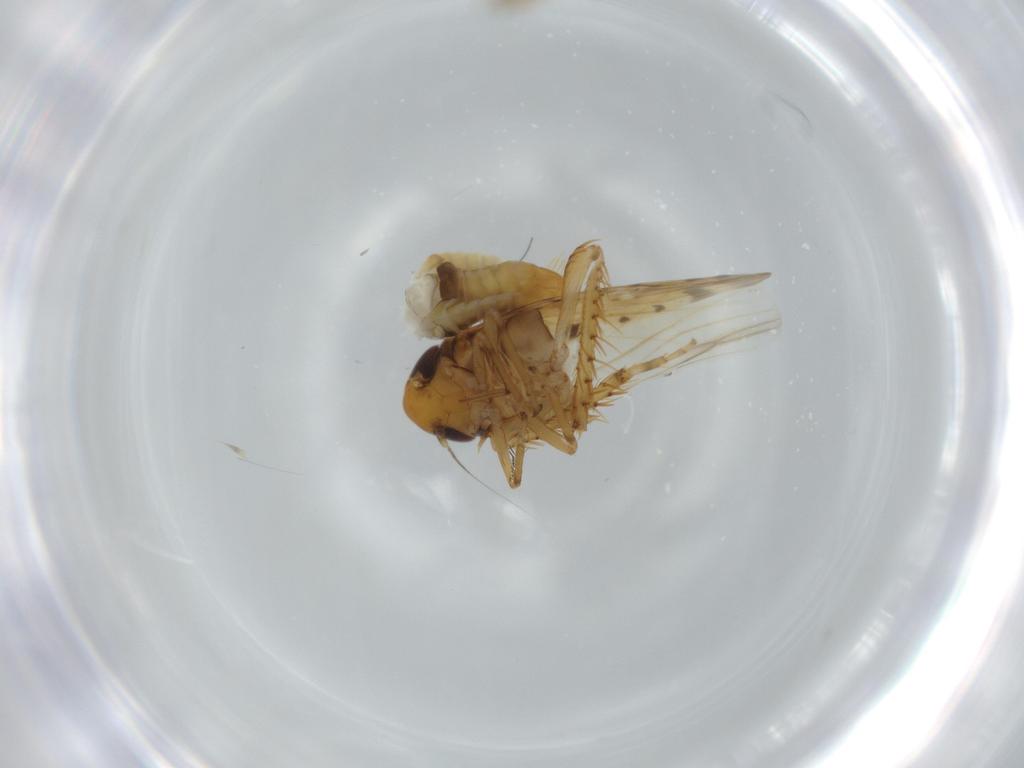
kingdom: Animalia
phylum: Arthropoda
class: Insecta
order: Hemiptera
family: Cicadellidae
